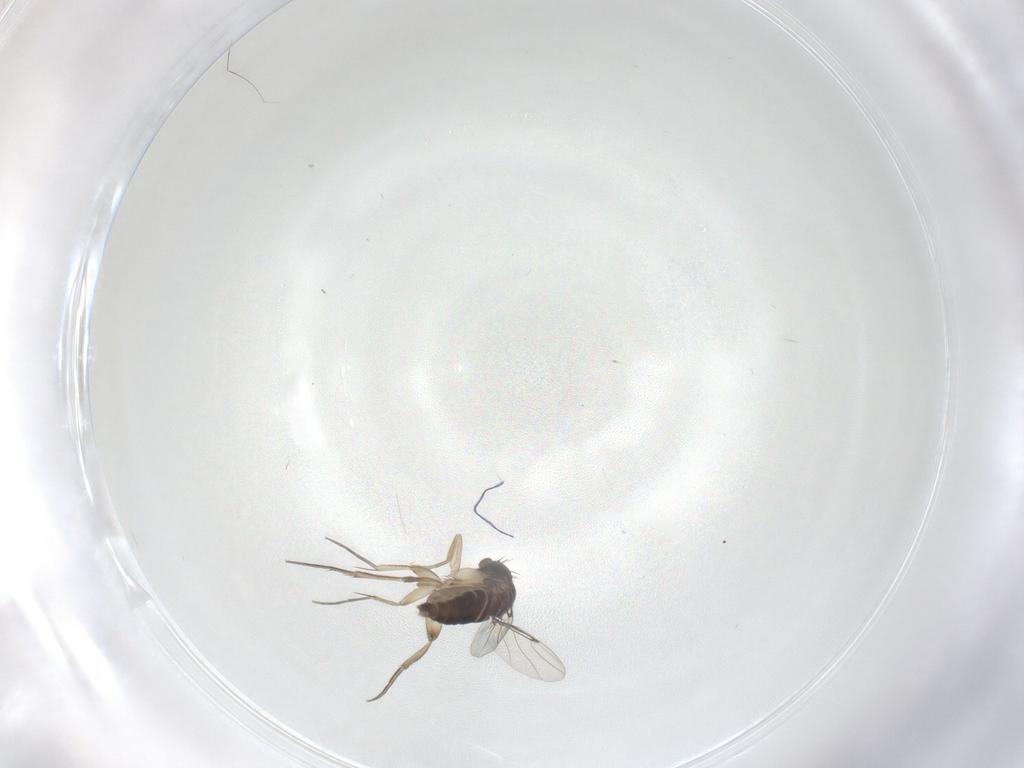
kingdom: Animalia
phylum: Arthropoda
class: Insecta
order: Diptera
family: Phoridae
